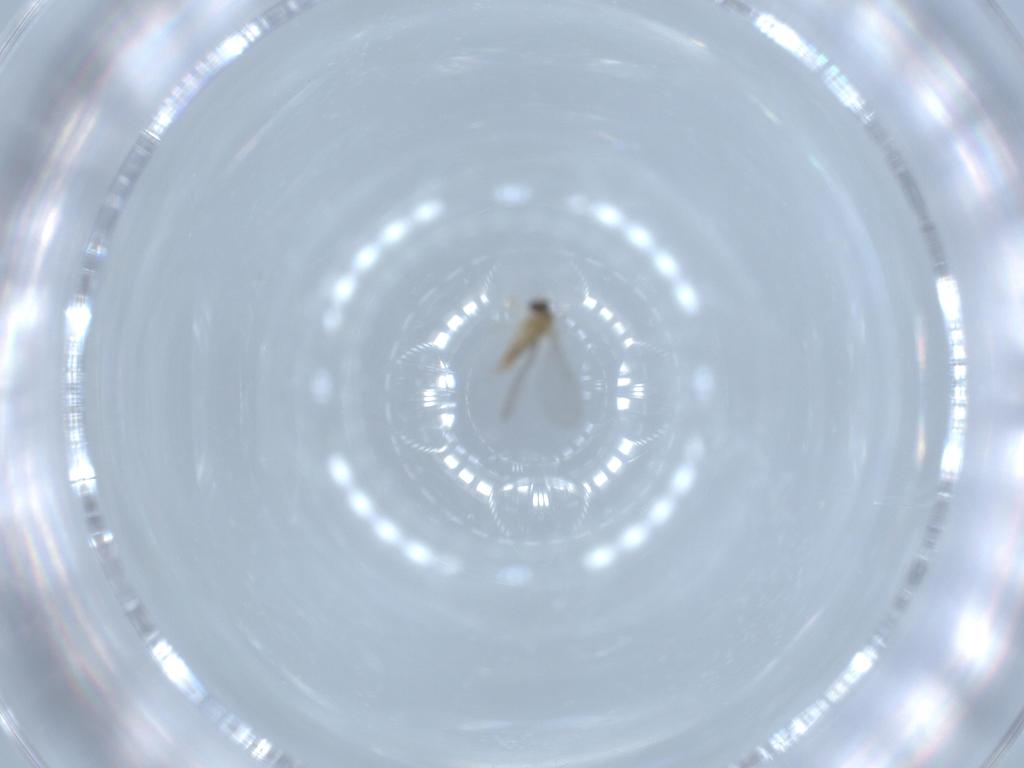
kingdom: Animalia
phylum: Arthropoda
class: Insecta
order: Diptera
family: Cecidomyiidae
